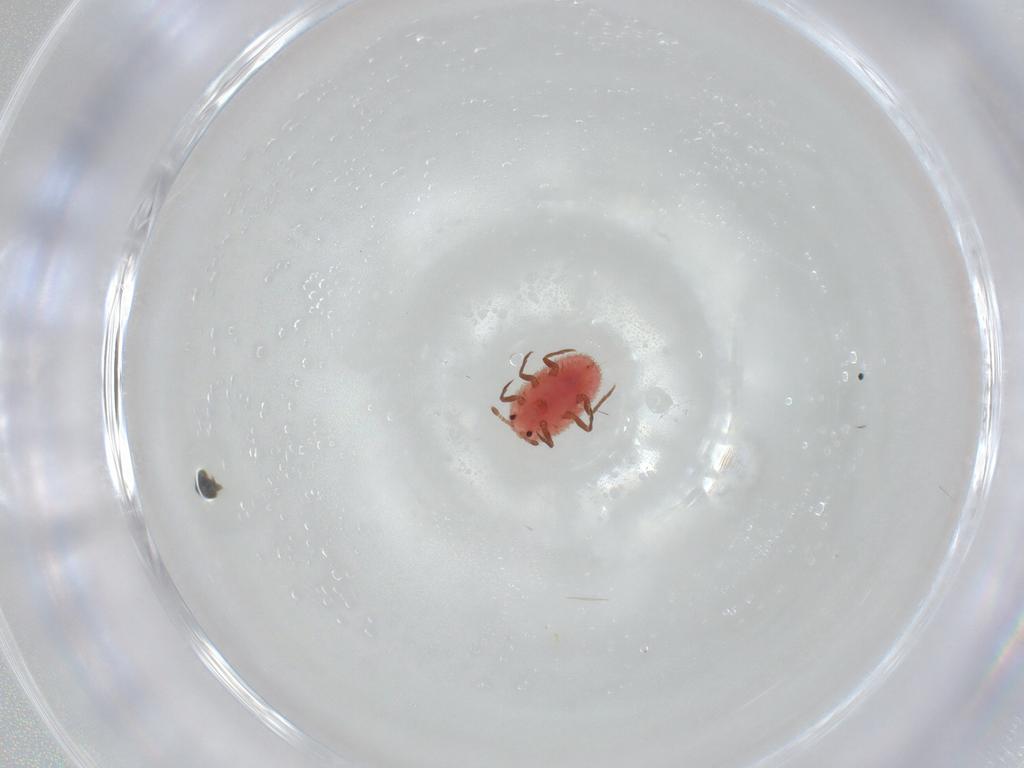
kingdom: Animalia
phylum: Arthropoda
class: Insecta
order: Psocodea
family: Liposcelididae
